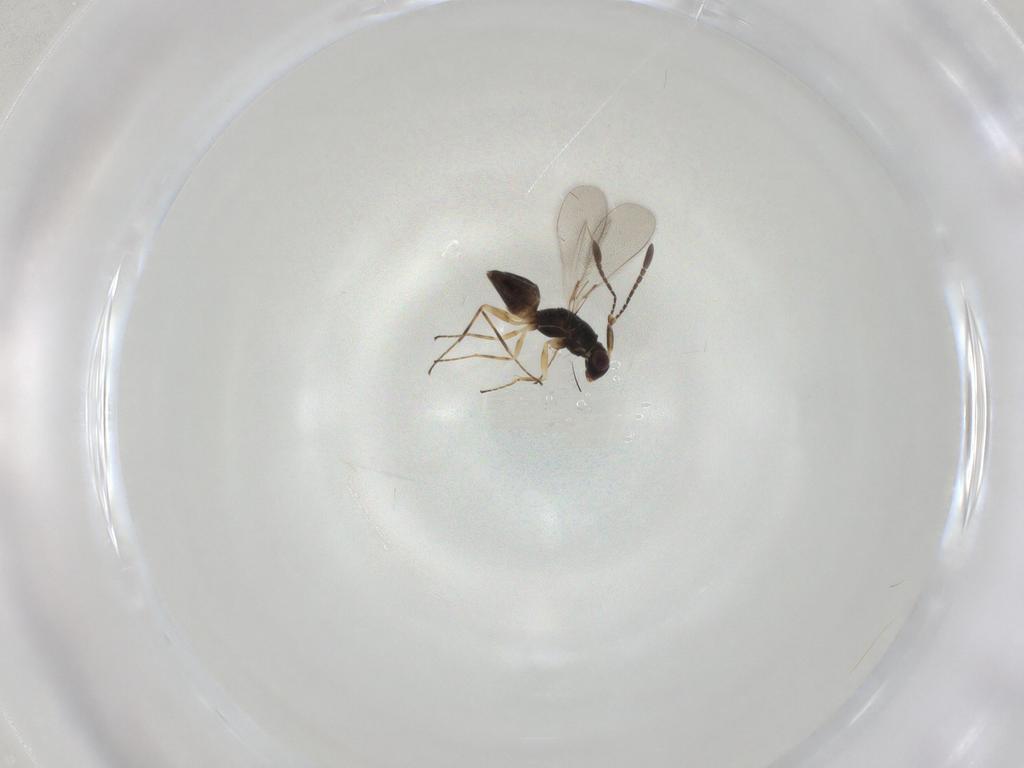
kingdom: Animalia
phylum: Arthropoda
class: Insecta
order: Hymenoptera
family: Mymaridae
